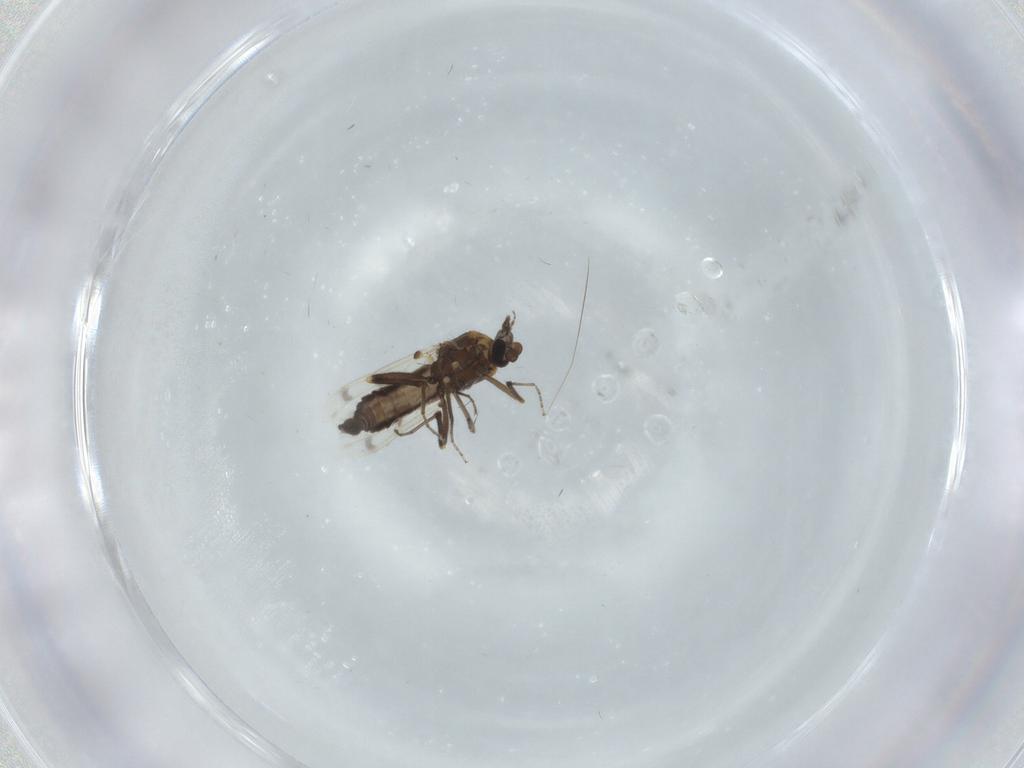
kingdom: Animalia
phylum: Arthropoda
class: Insecta
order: Diptera
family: Ceratopogonidae
